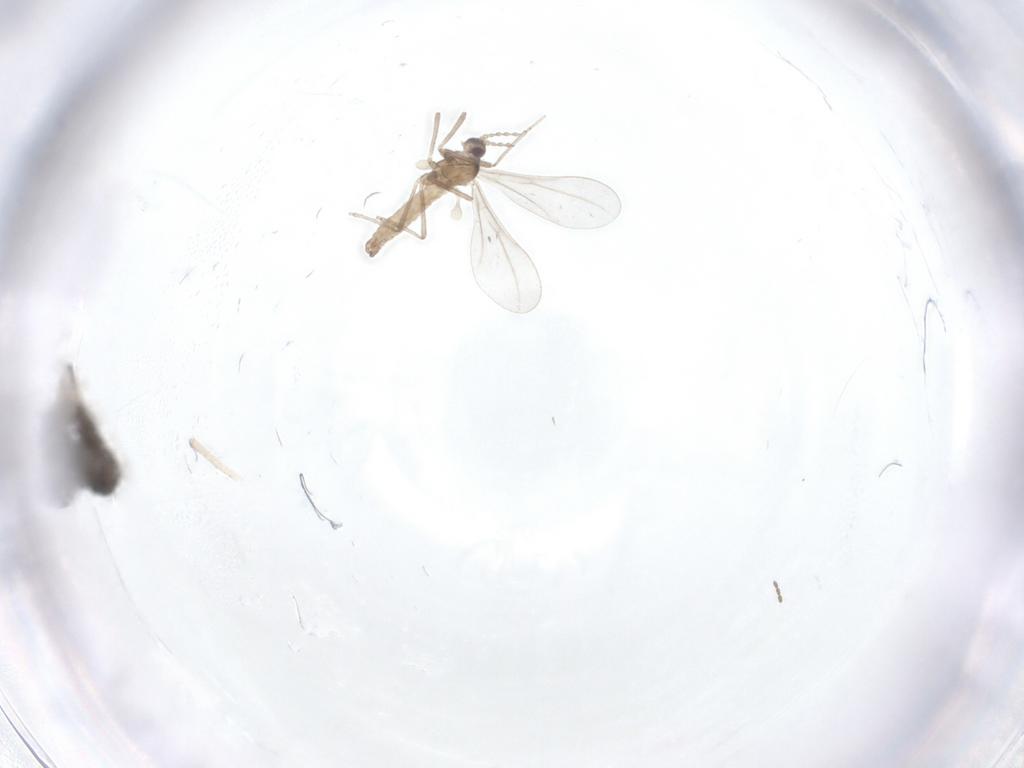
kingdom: Animalia
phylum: Arthropoda
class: Insecta
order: Diptera
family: Cecidomyiidae
